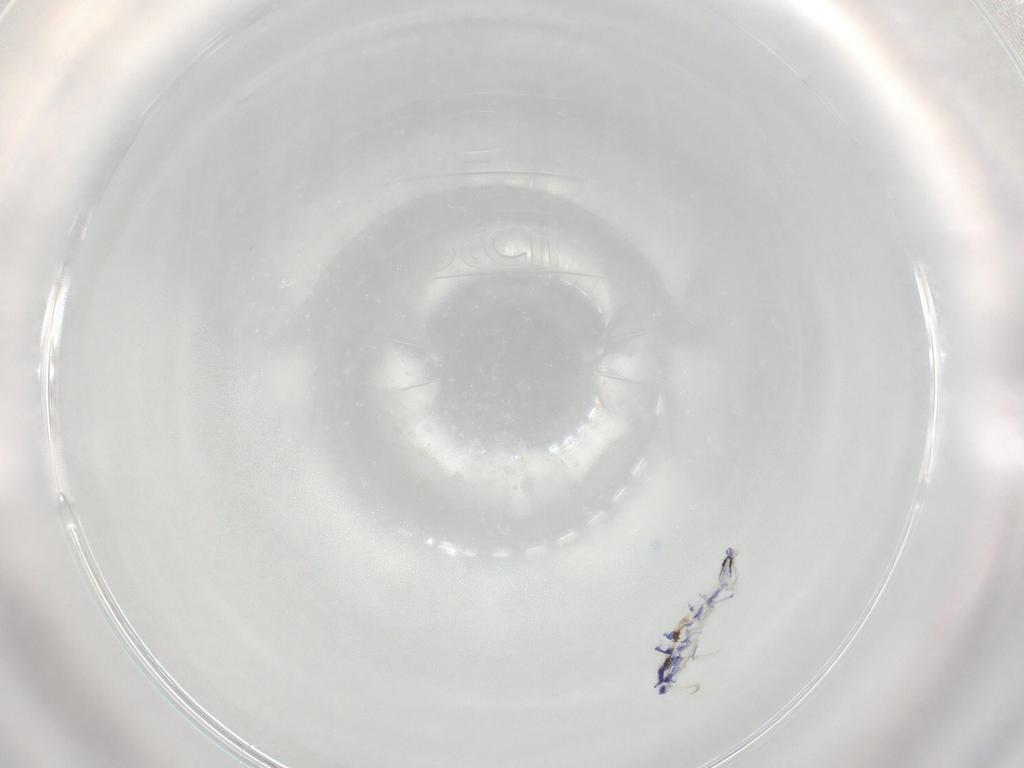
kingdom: Animalia
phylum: Arthropoda
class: Collembola
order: Entomobryomorpha
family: Entomobryidae
